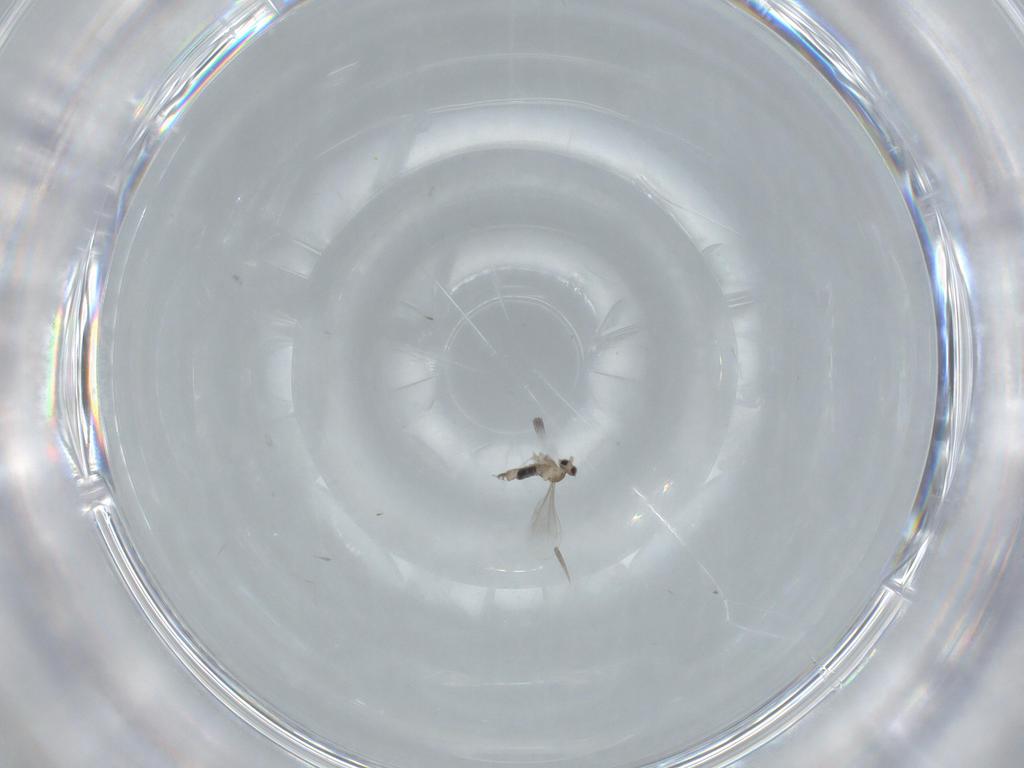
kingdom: Animalia
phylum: Arthropoda
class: Insecta
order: Diptera
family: Cecidomyiidae
